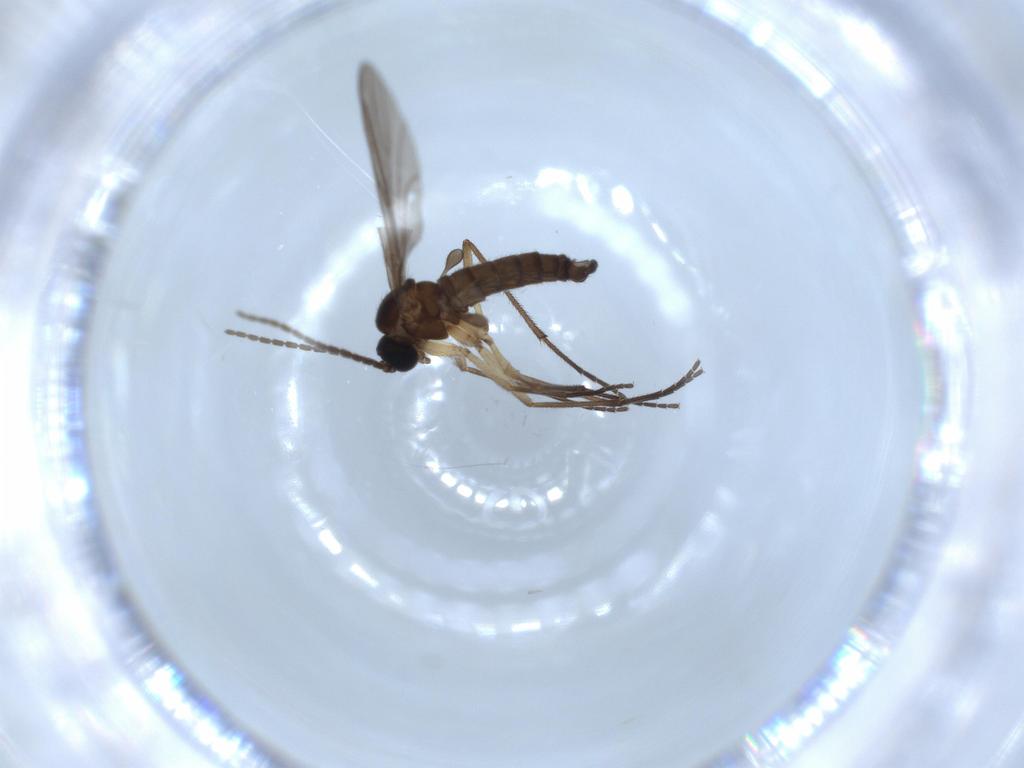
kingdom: Animalia
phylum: Arthropoda
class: Insecta
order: Diptera
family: Sciaridae
